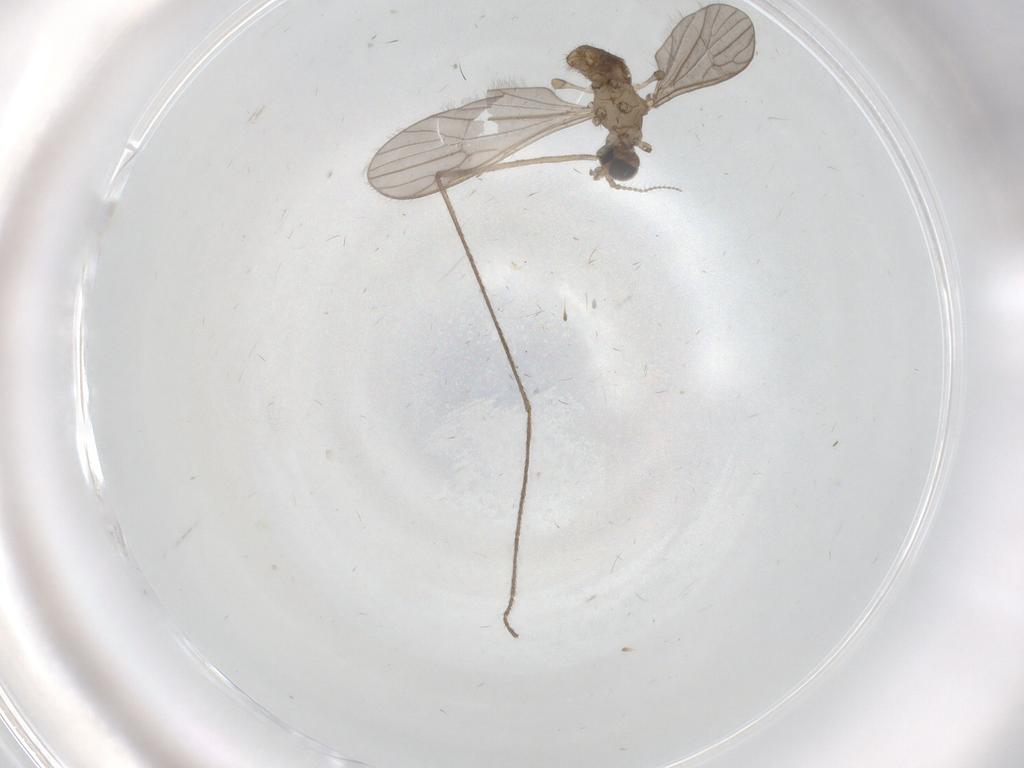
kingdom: Animalia
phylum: Arthropoda
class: Insecta
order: Diptera
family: Limoniidae
